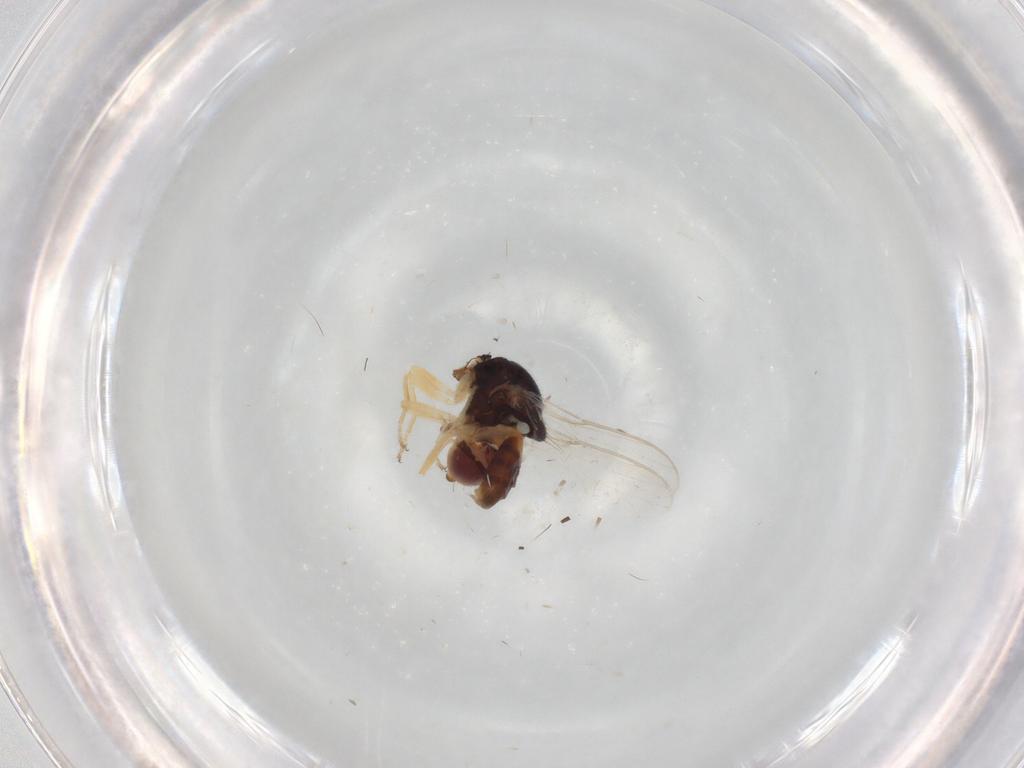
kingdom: Animalia
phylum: Arthropoda
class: Insecta
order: Diptera
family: Chloropidae
